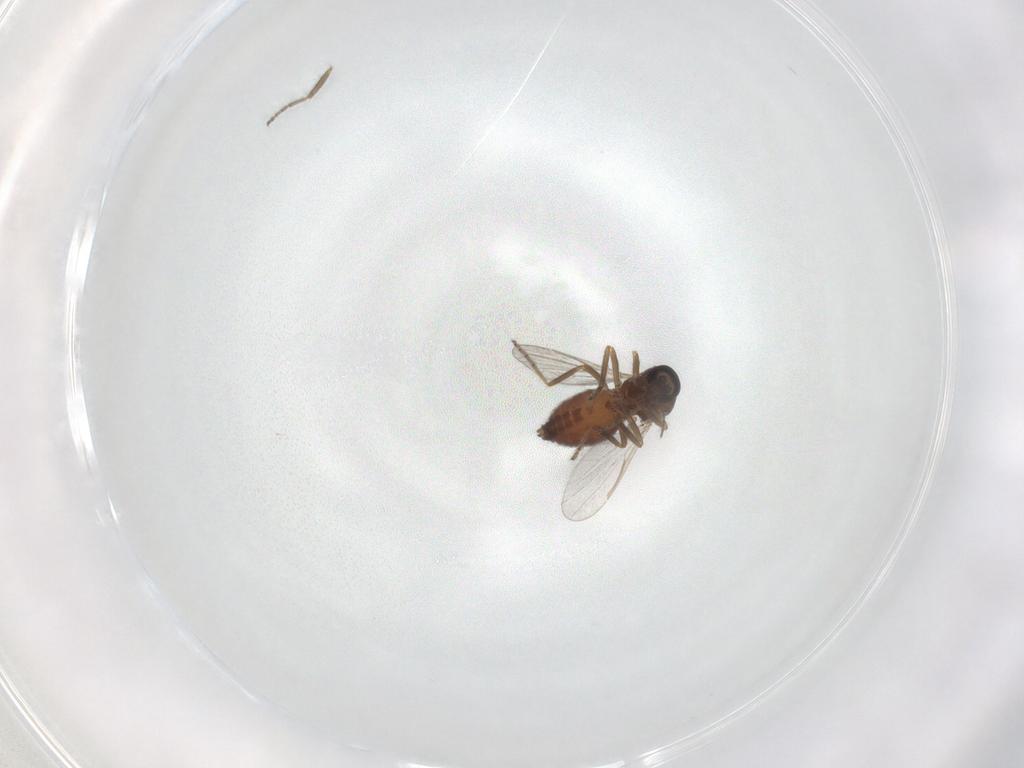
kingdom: Animalia
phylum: Arthropoda
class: Insecta
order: Diptera
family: Ceratopogonidae
